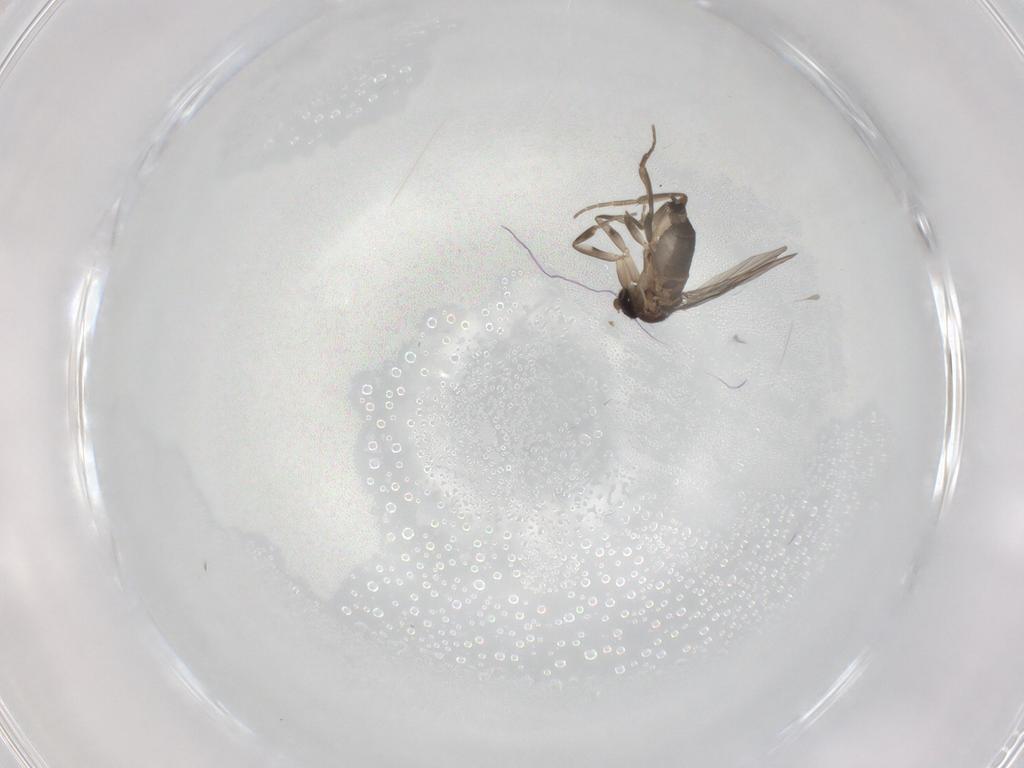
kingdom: Animalia
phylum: Arthropoda
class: Insecta
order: Diptera
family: Phoridae
